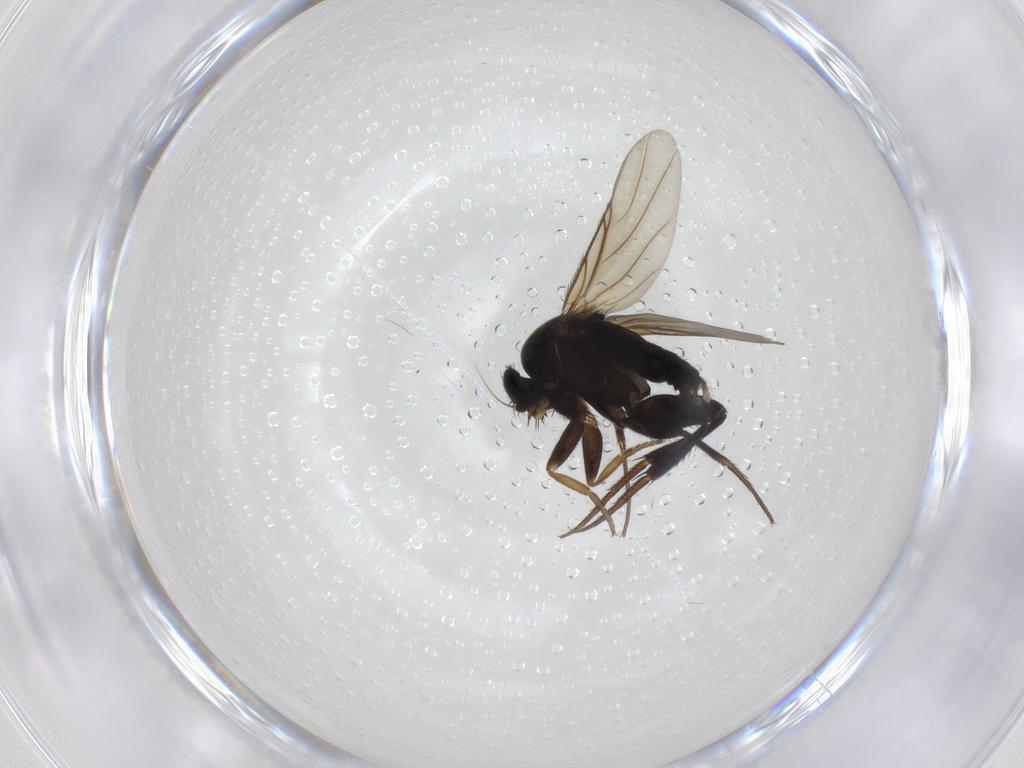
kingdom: Animalia
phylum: Arthropoda
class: Insecta
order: Diptera
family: Phoridae
